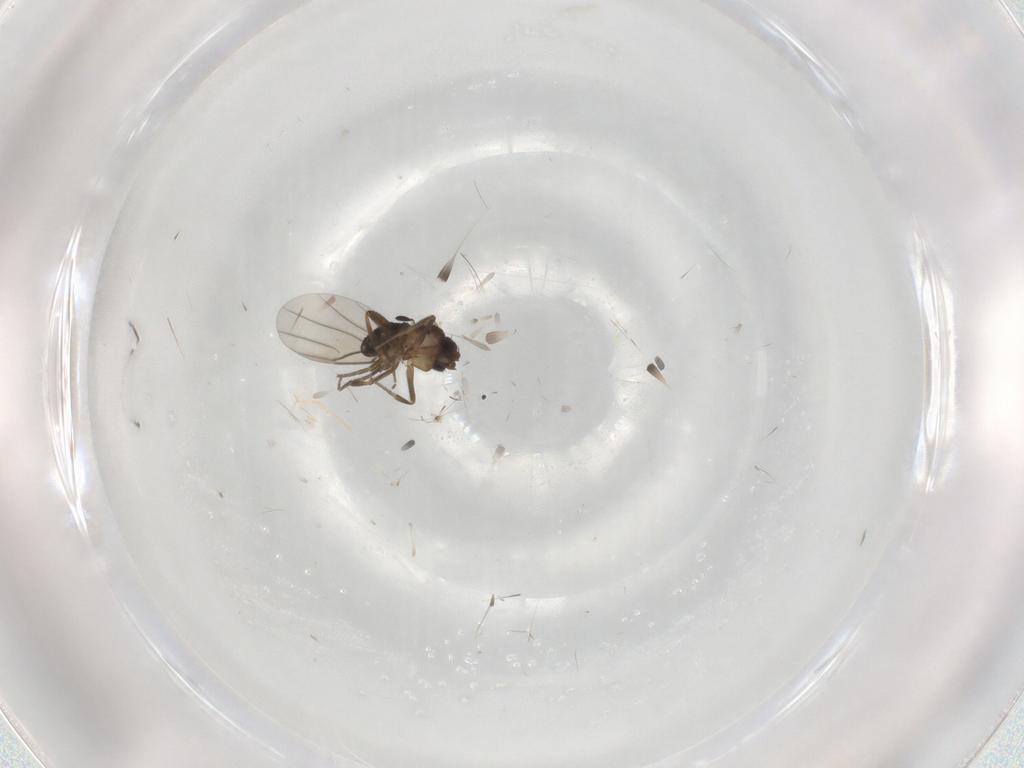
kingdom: Animalia
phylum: Arthropoda
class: Insecta
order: Diptera
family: Phoridae
